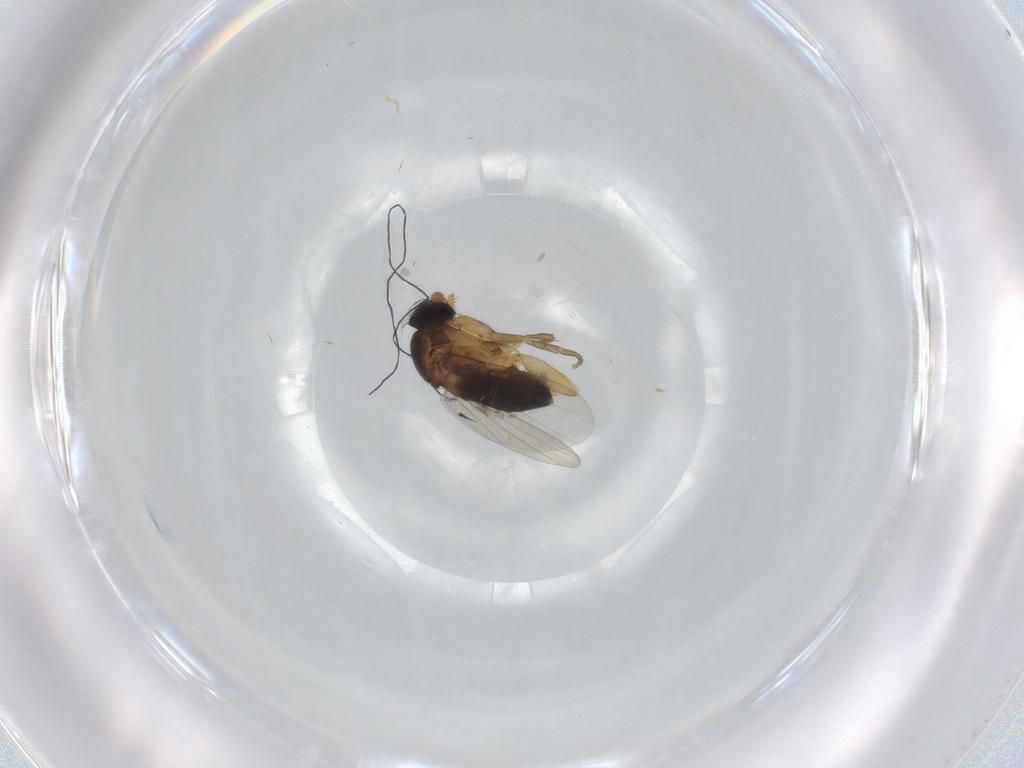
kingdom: Animalia
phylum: Arthropoda
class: Insecta
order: Diptera
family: Phoridae
